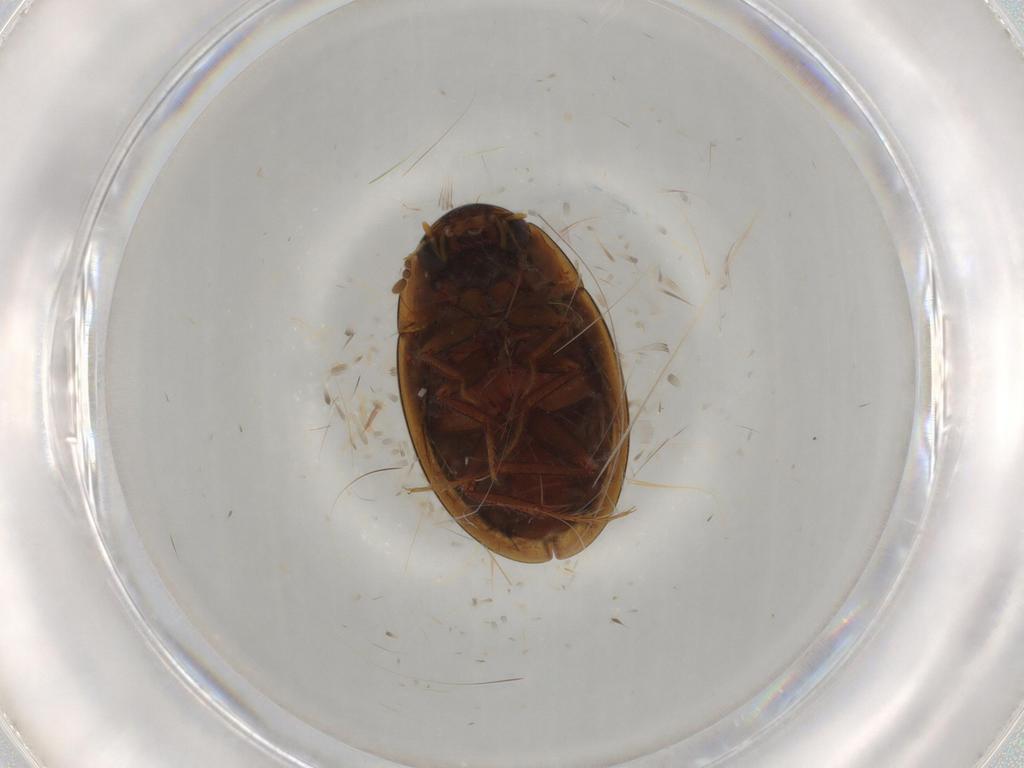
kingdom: Animalia
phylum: Arthropoda
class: Insecta
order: Coleoptera
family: Hydrophilidae
